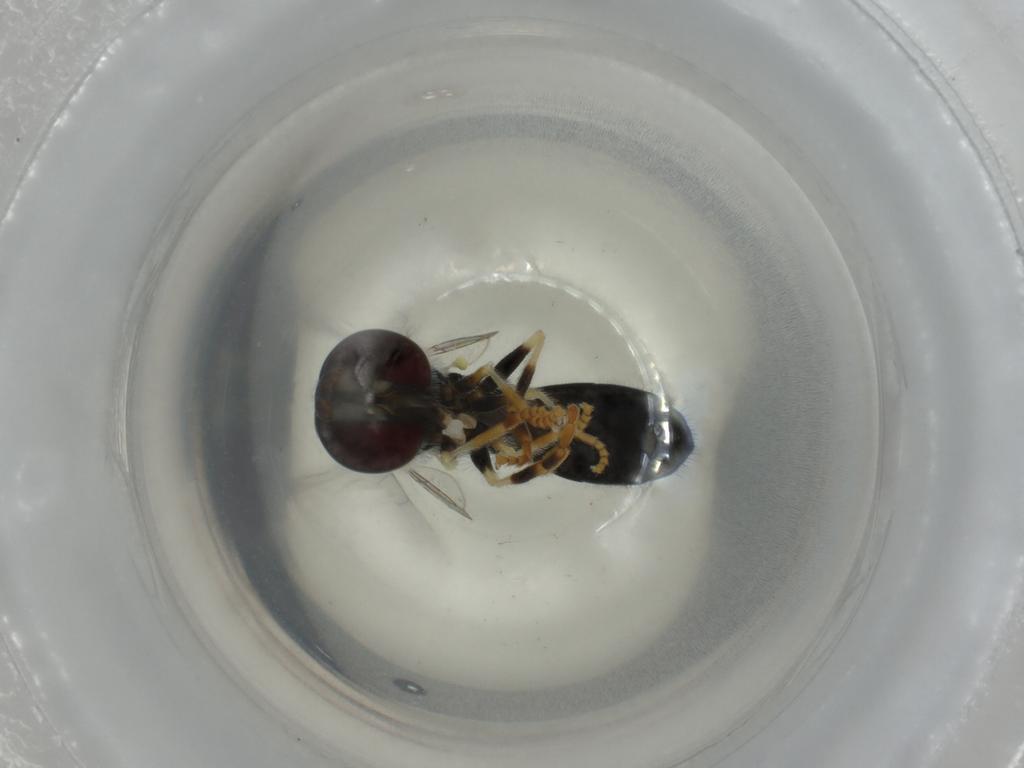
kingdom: Animalia
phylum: Arthropoda
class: Insecta
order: Diptera
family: Syrphidae
